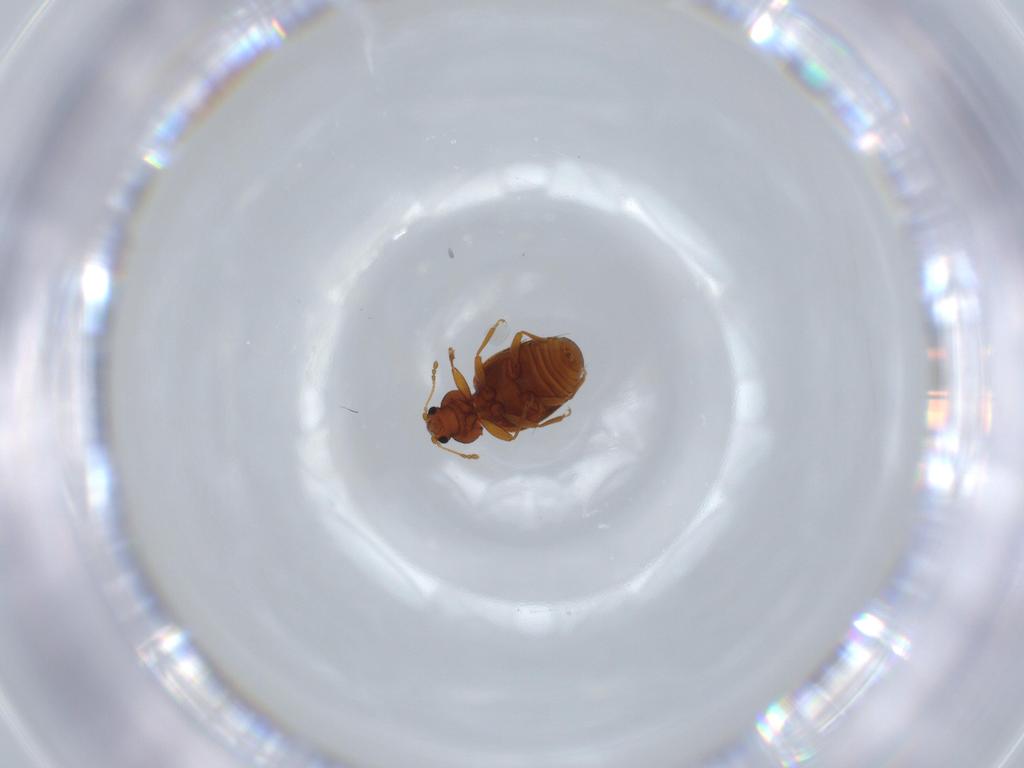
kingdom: Animalia
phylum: Arthropoda
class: Insecta
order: Coleoptera
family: Latridiidae
